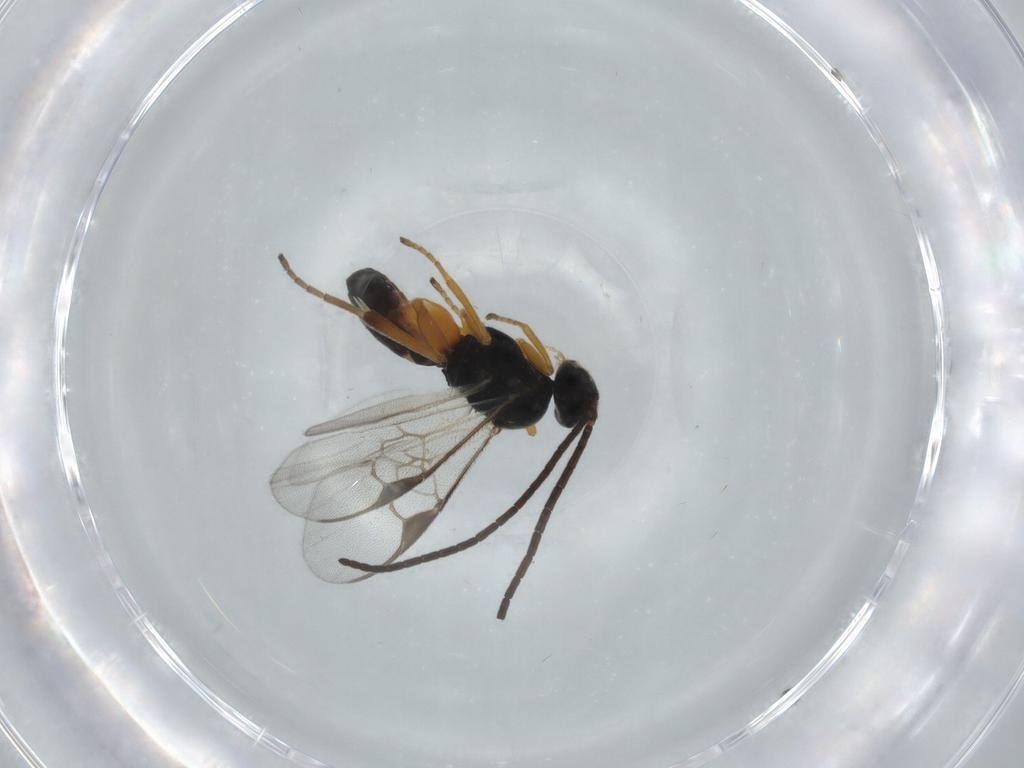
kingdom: Animalia
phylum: Arthropoda
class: Insecta
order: Hymenoptera
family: Braconidae
